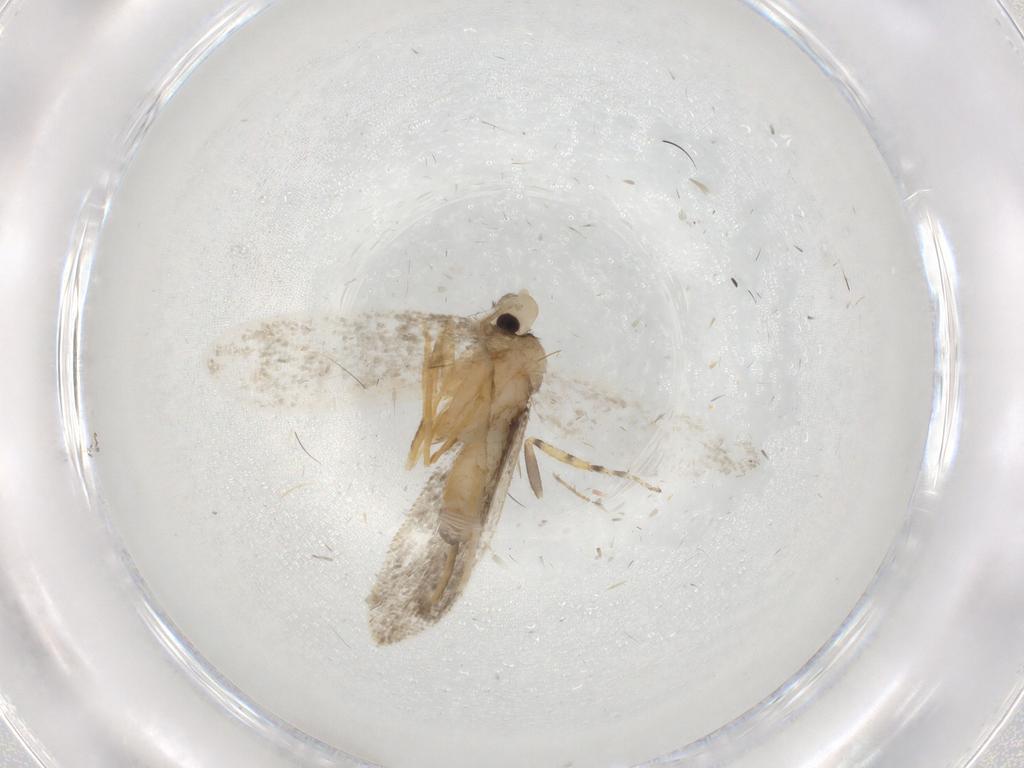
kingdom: Animalia
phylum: Arthropoda
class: Insecta
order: Lepidoptera
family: Psychidae
